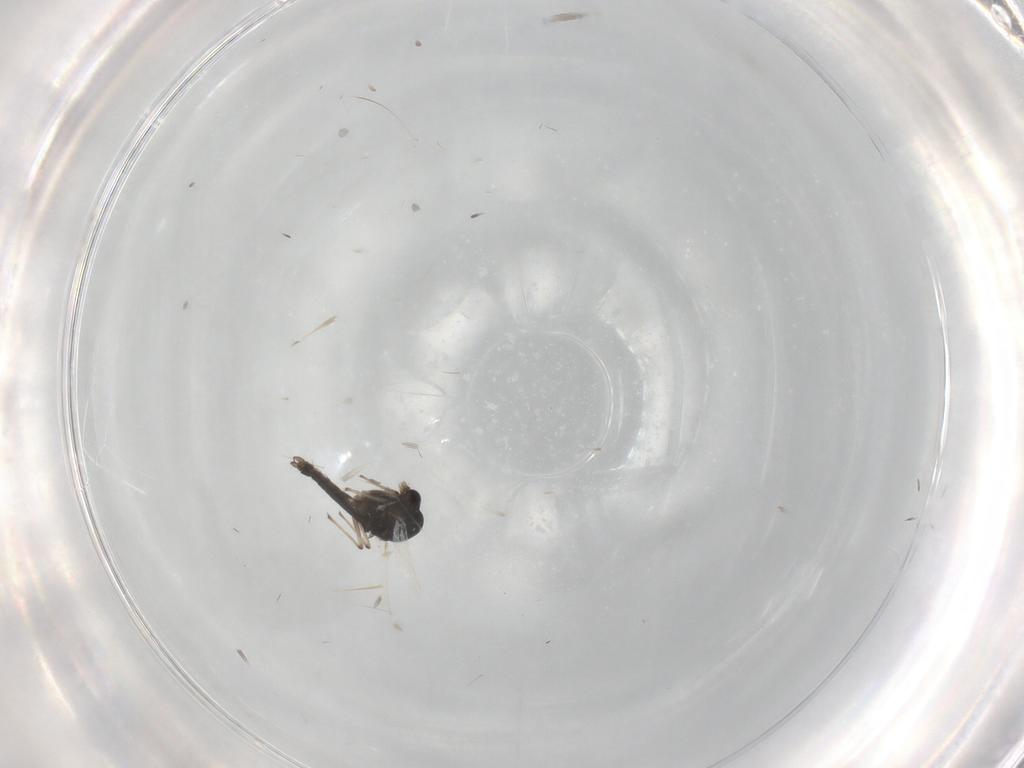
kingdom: Animalia
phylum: Arthropoda
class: Insecta
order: Diptera
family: Chironomidae
